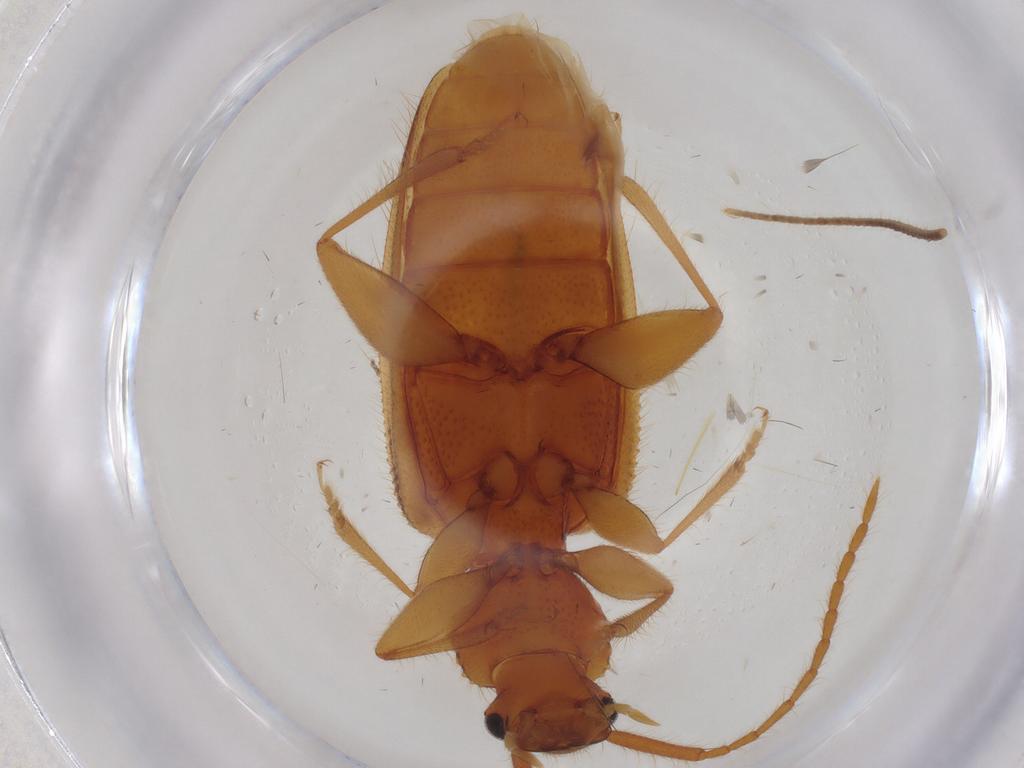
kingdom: Animalia
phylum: Arthropoda
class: Insecta
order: Coleoptera
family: Silvanidae
